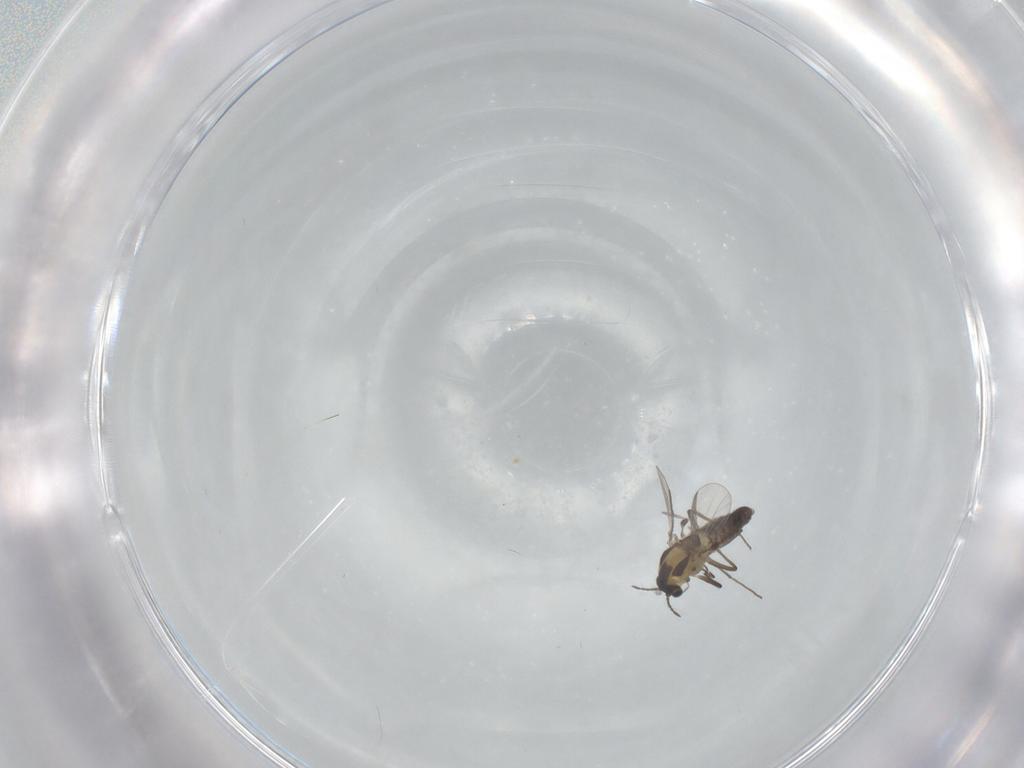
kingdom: Animalia
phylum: Arthropoda
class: Insecta
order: Diptera
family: Chironomidae
